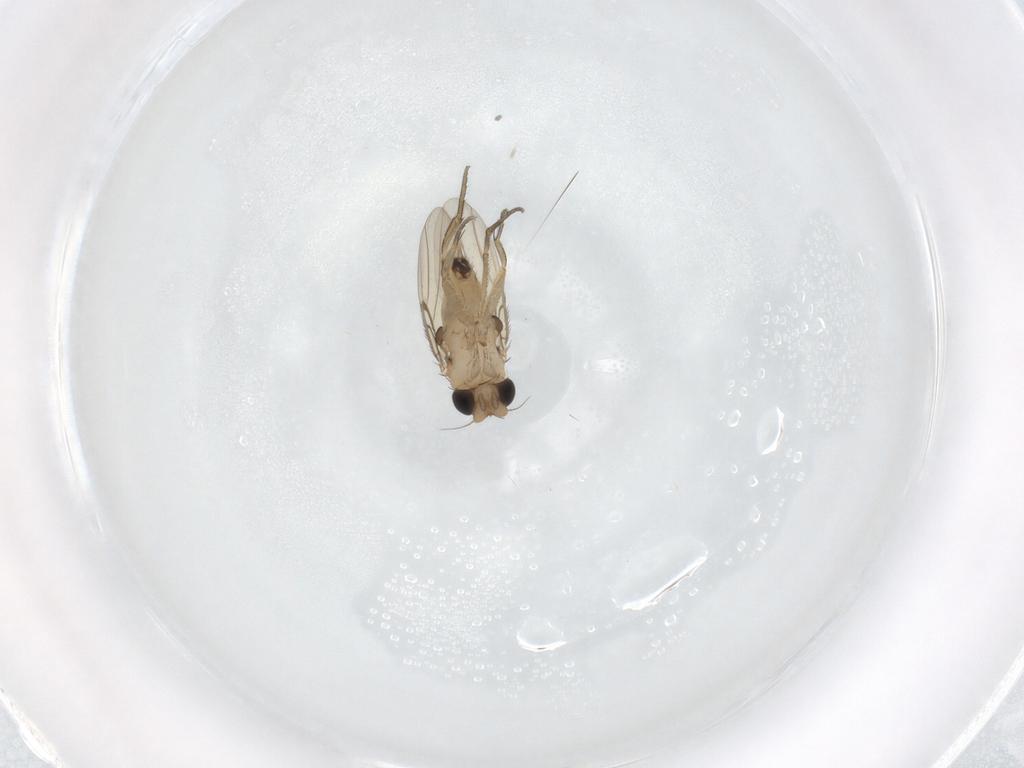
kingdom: Animalia
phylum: Arthropoda
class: Insecta
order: Diptera
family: Phoridae
